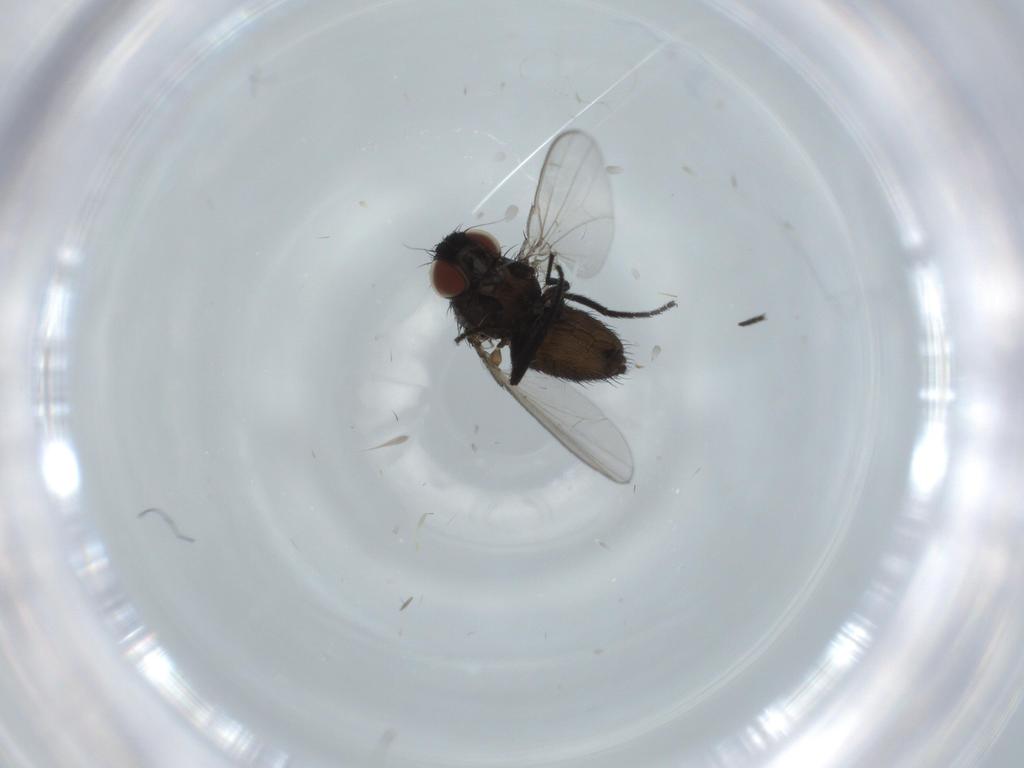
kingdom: Animalia
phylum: Arthropoda
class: Insecta
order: Diptera
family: Milichiidae
